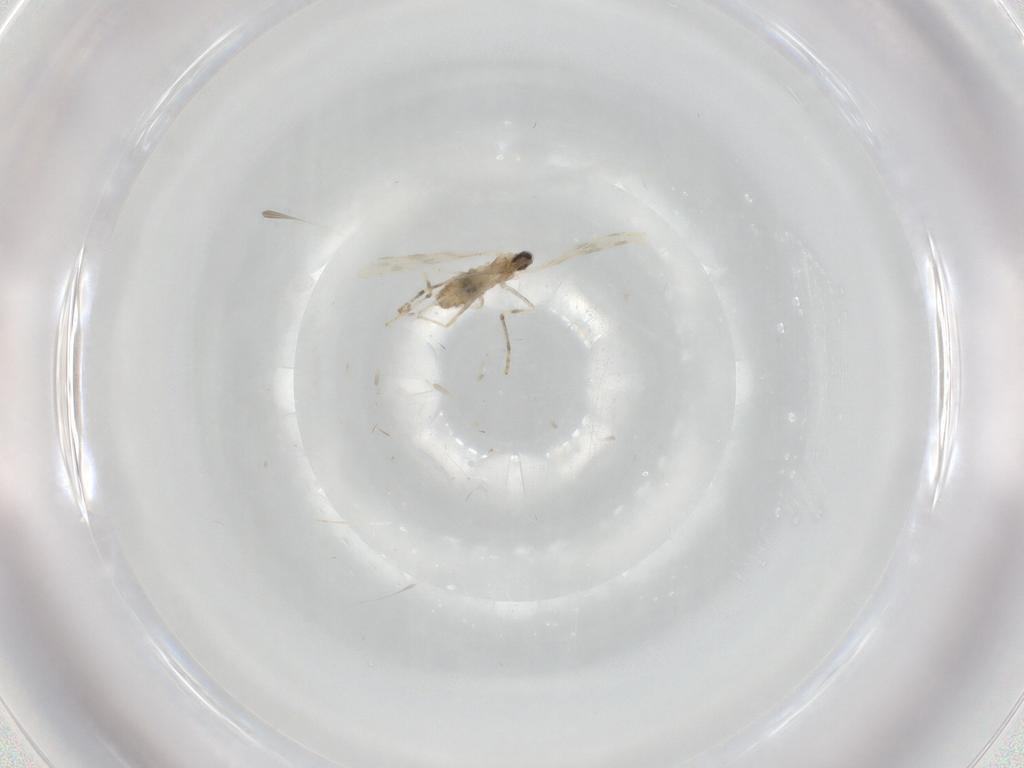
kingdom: Animalia
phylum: Arthropoda
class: Insecta
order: Diptera
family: Cecidomyiidae
